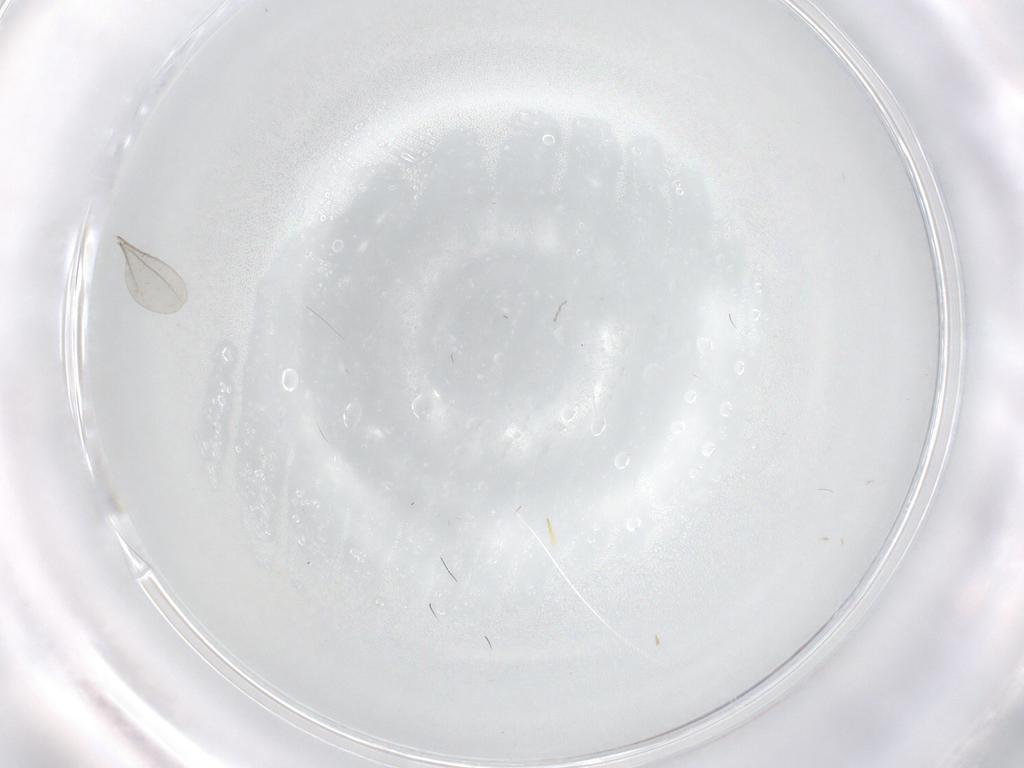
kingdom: Animalia
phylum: Arthropoda
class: Insecta
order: Diptera
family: Cecidomyiidae
